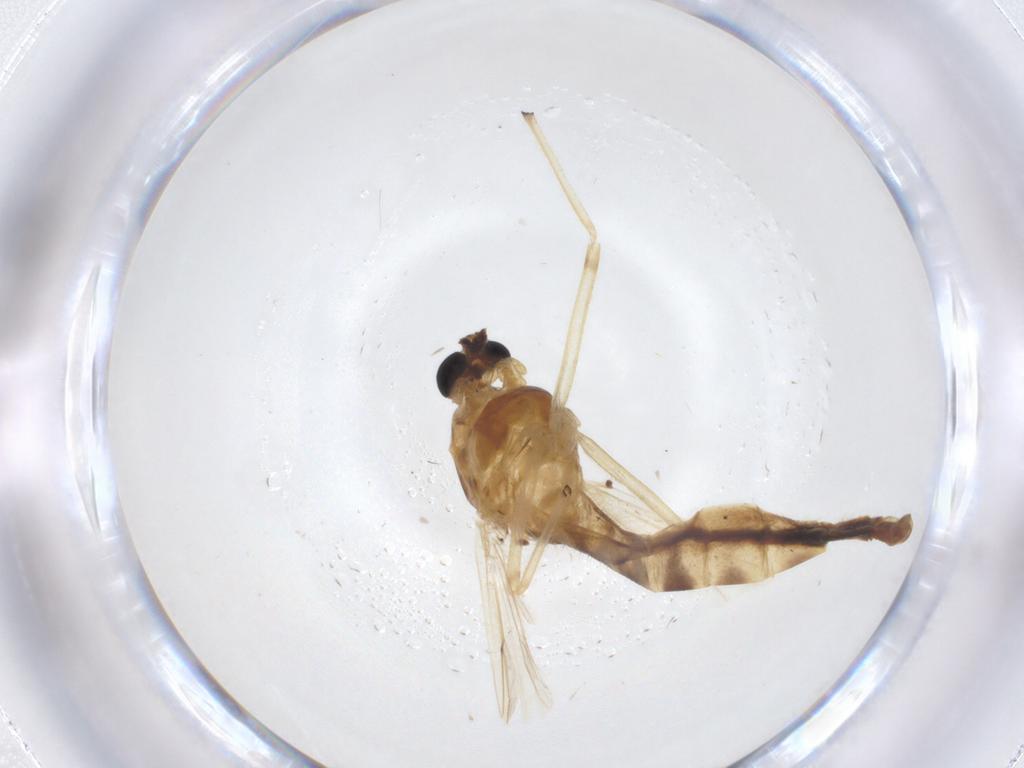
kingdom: Animalia
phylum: Arthropoda
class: Insecta
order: Diptera
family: Chironomidae
